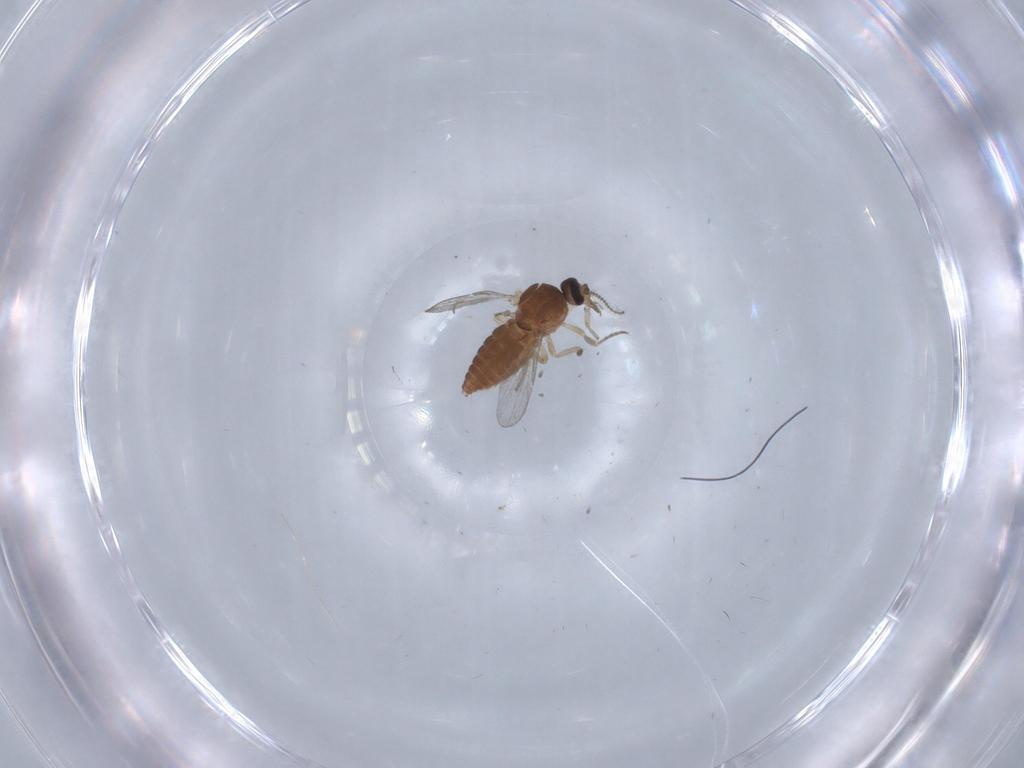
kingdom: Animalia
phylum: Arthropoda
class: Insecta
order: Diptera
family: Ceratopogonidae
